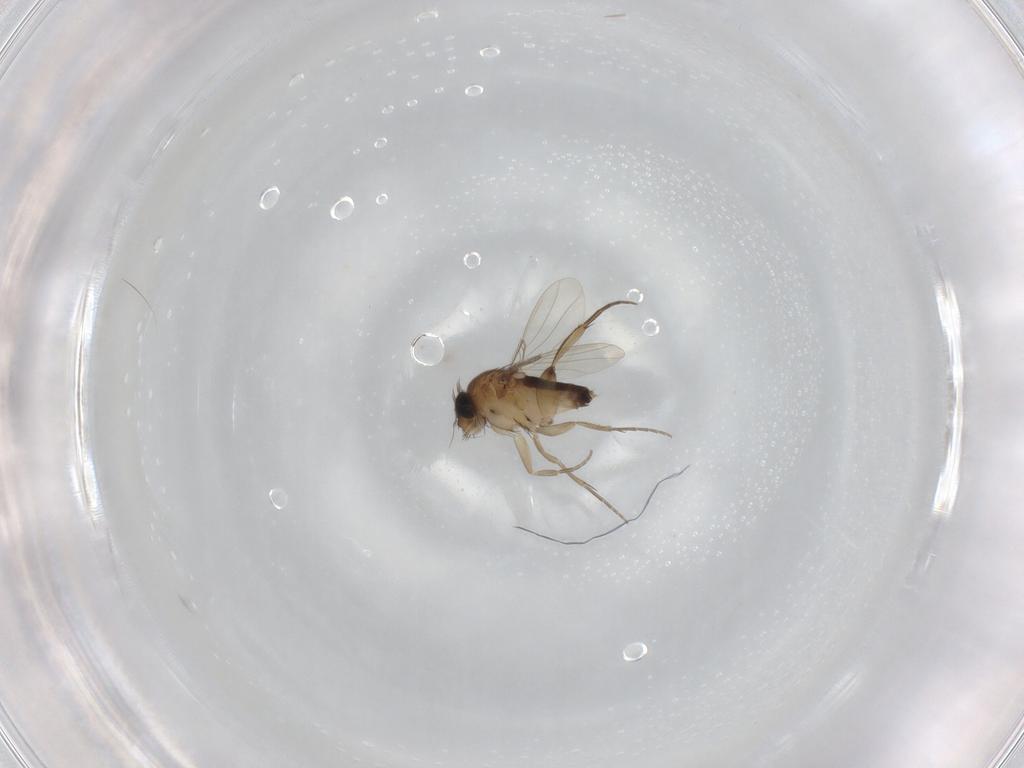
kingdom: Animalia
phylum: Arthropoda
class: Insecta
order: Diptera
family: Phoridae
